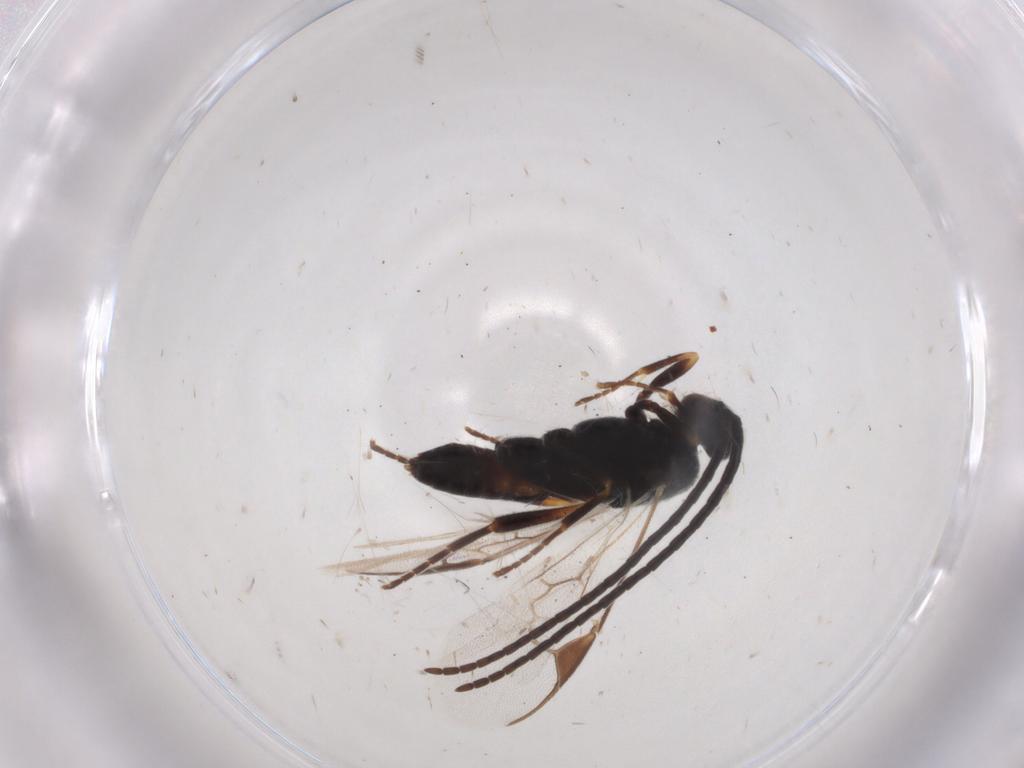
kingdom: Animalia
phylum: Arthropoda
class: Insecta
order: Hymenoptera
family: Braconidae
